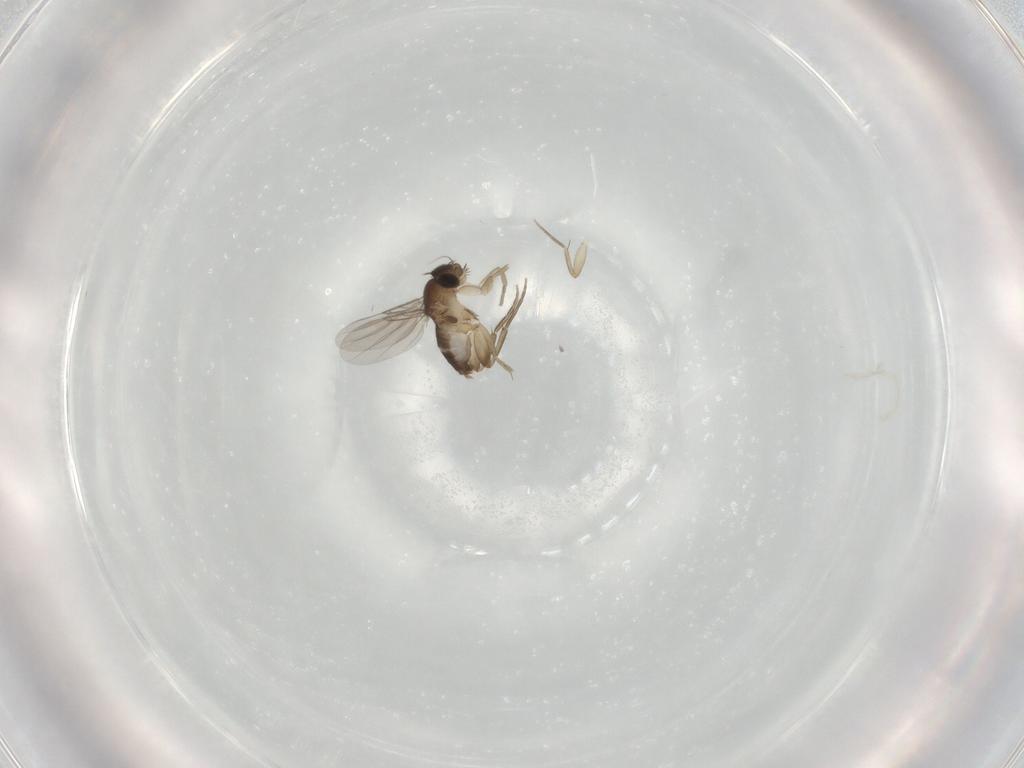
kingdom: Animalia
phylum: Arthropoda
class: Insecta
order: Diptera
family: Phoridae
